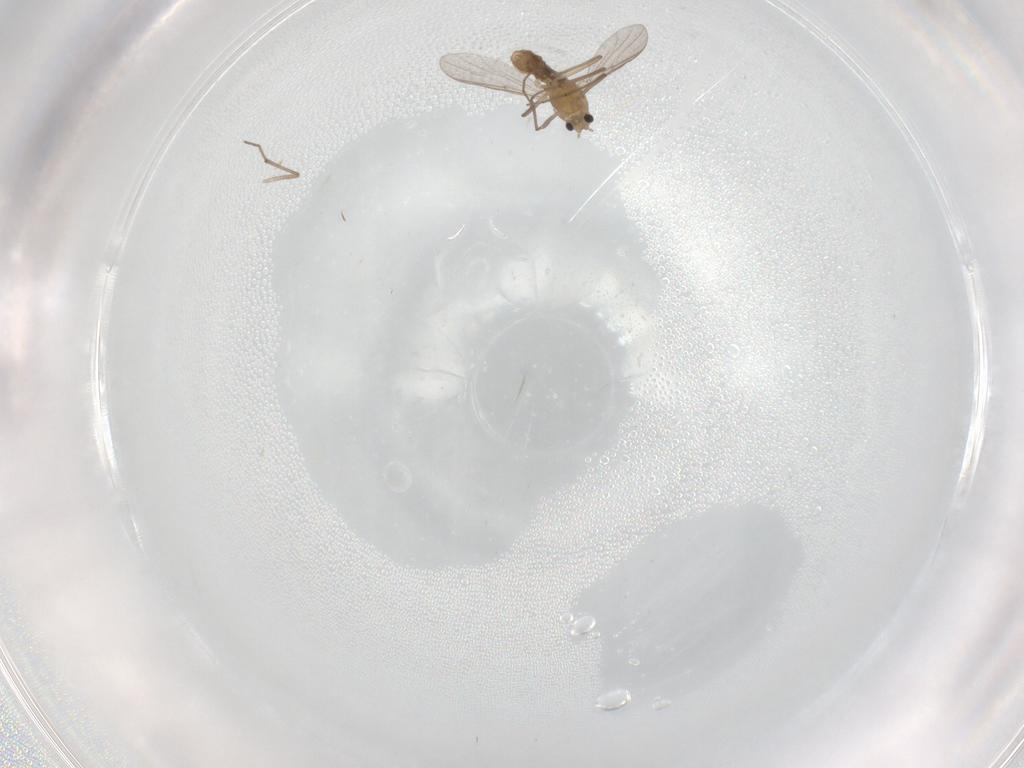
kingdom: Animalia
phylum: Arthropoda
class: Insecta
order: Diptera
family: Chironomidae
